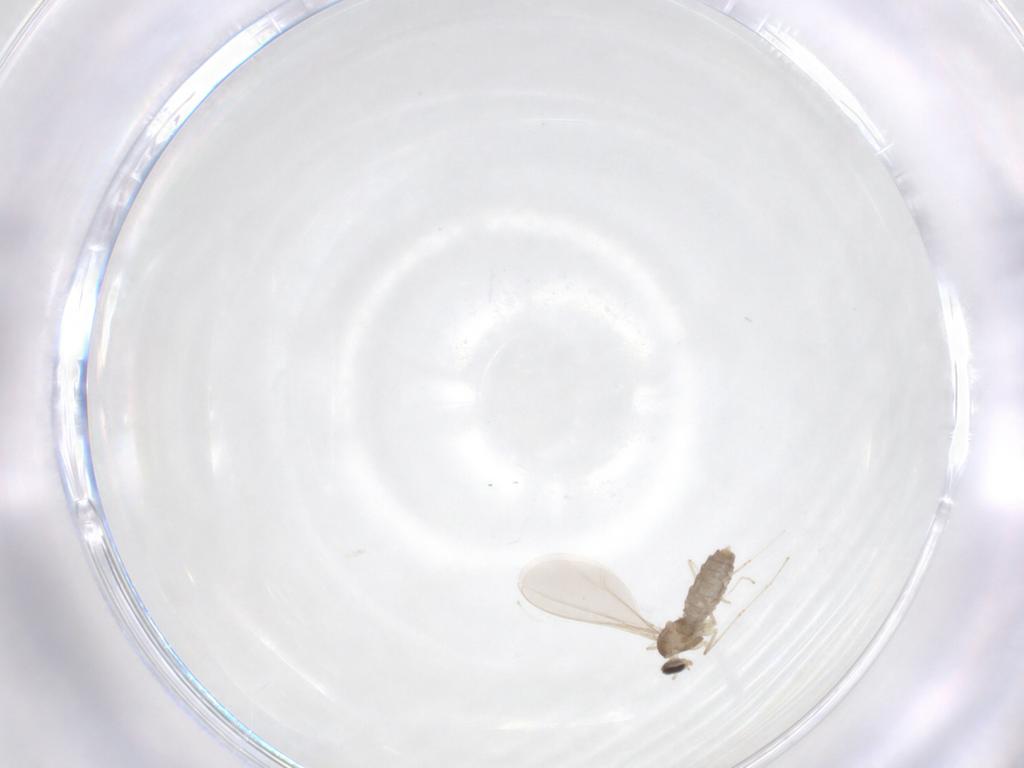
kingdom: Animalia
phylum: Arthropoda
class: Insecta
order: Diptera
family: Cecidomyiidae
